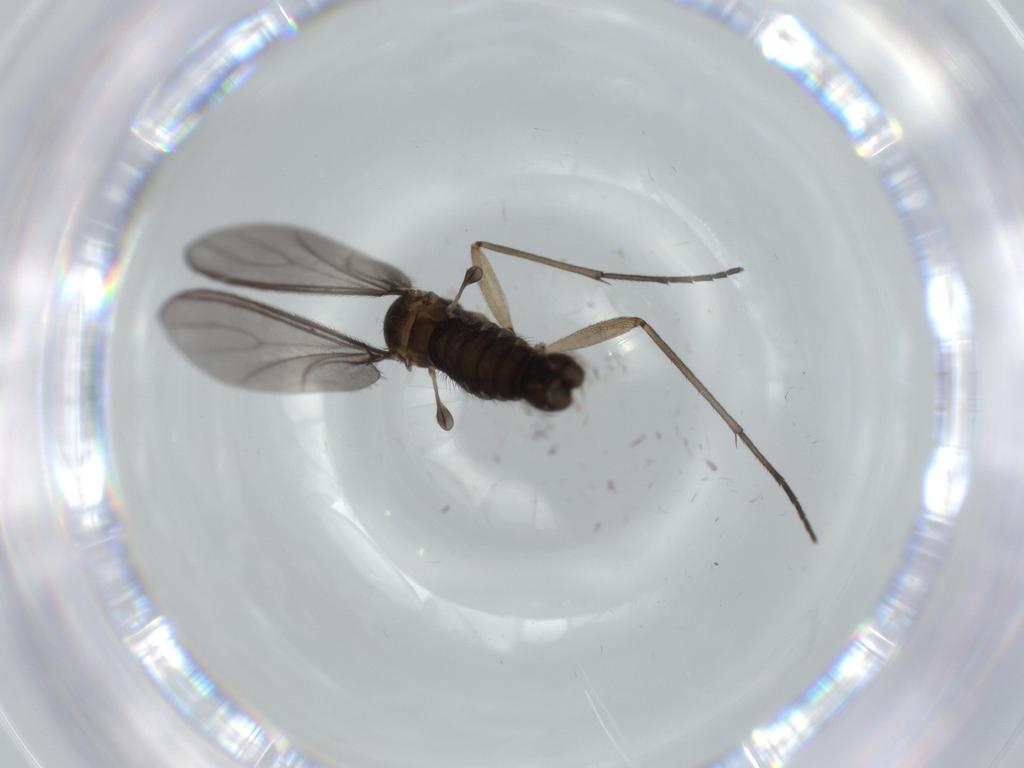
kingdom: Animalia
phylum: Arthropoda
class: Insecta
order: Diptera
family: Sciaridae
